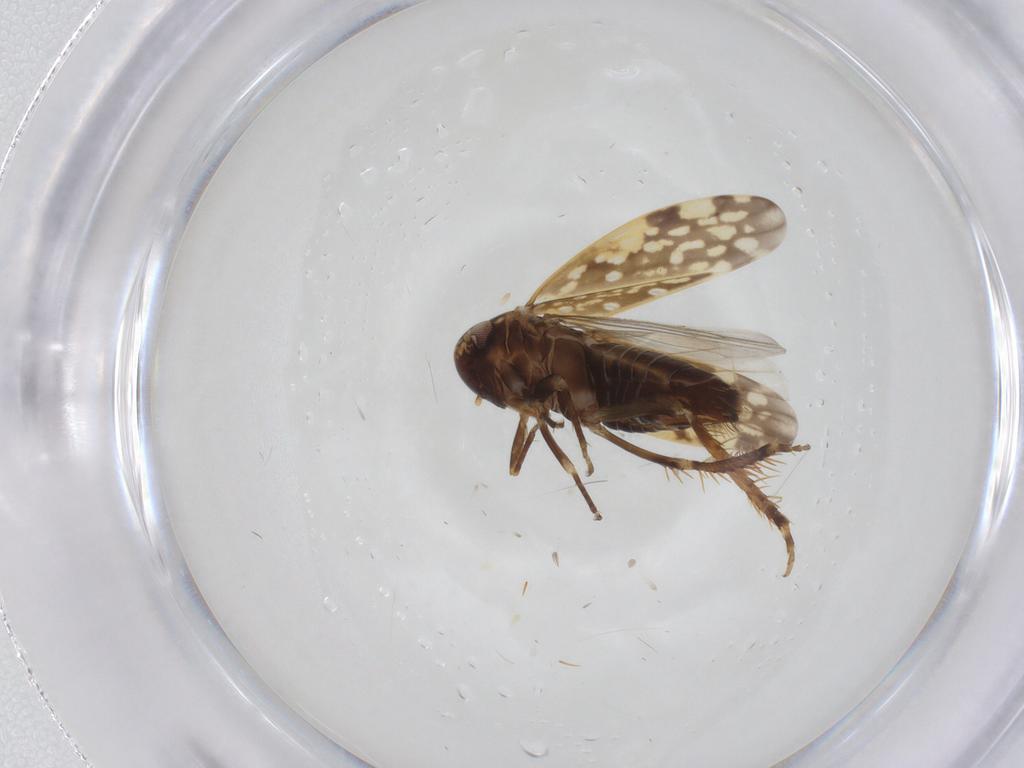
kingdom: Animalia
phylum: Arthropoda
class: Insecta
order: Hemiptera
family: Cicadellidae
